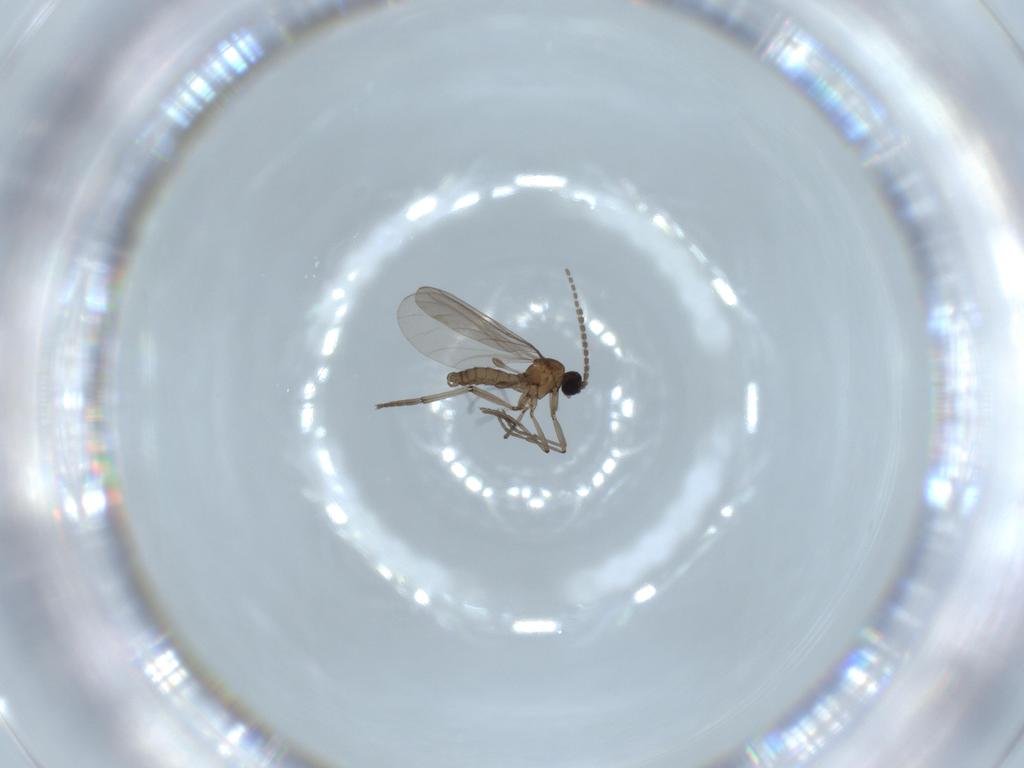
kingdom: Animalia
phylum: Arthropoda
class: Insecta
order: Diptera
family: Sciaridae
